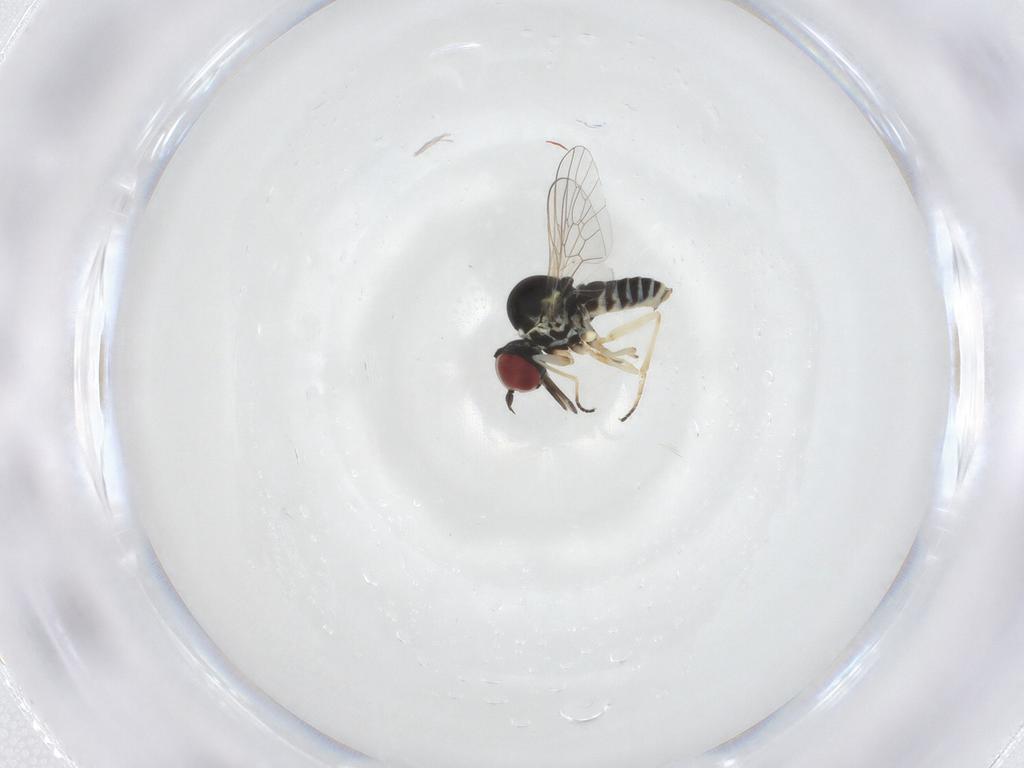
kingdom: Animalia
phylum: Arthropoda
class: Insecta
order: Diptera
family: Mythicomyiidae
